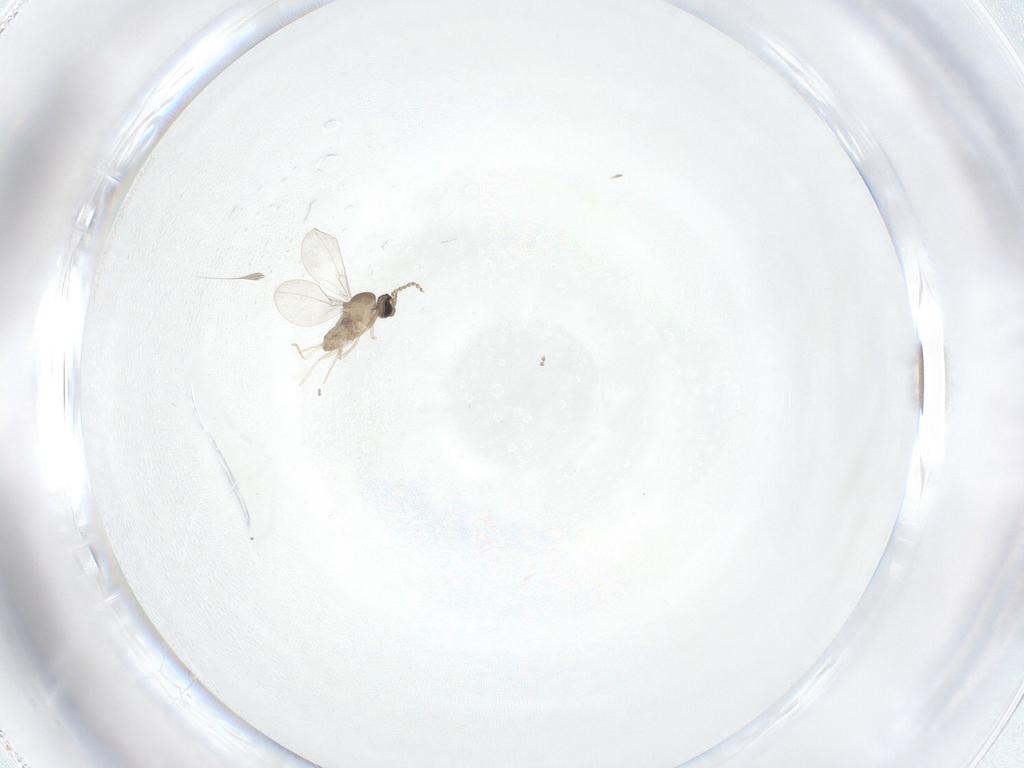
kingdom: Animalia
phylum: Arthropoda
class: Insecta
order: Diptera
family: Cecidomyiidae
